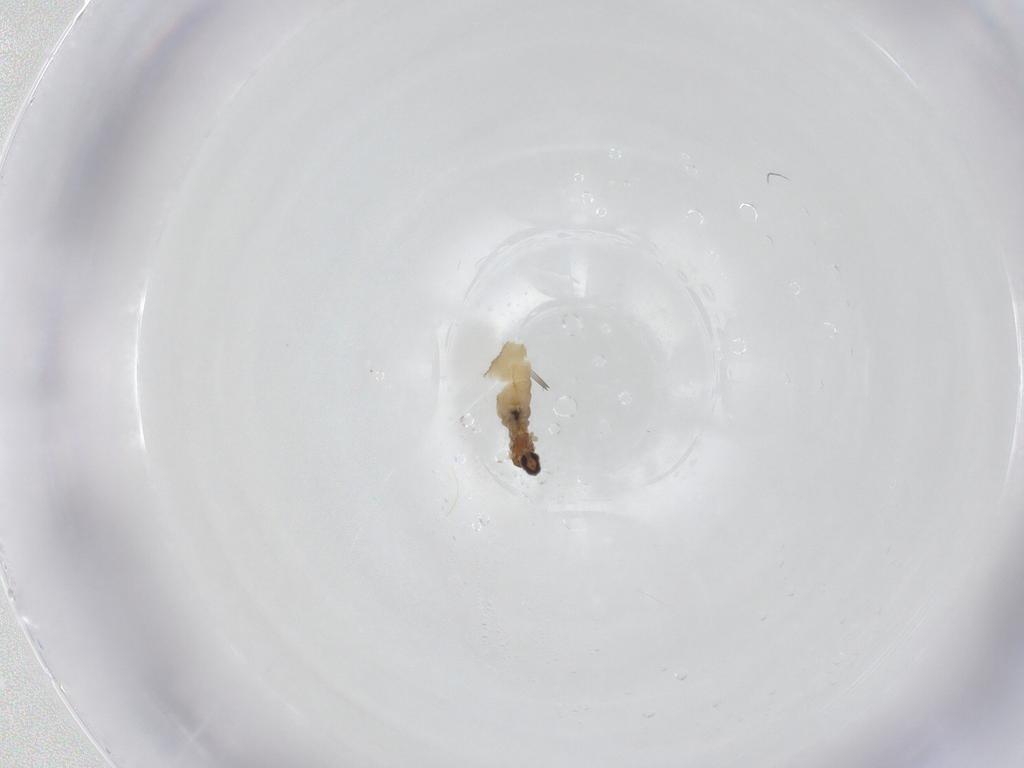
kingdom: Animalia
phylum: Arthropoda
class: Insecta
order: Diptera
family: Cecidomyiidae
